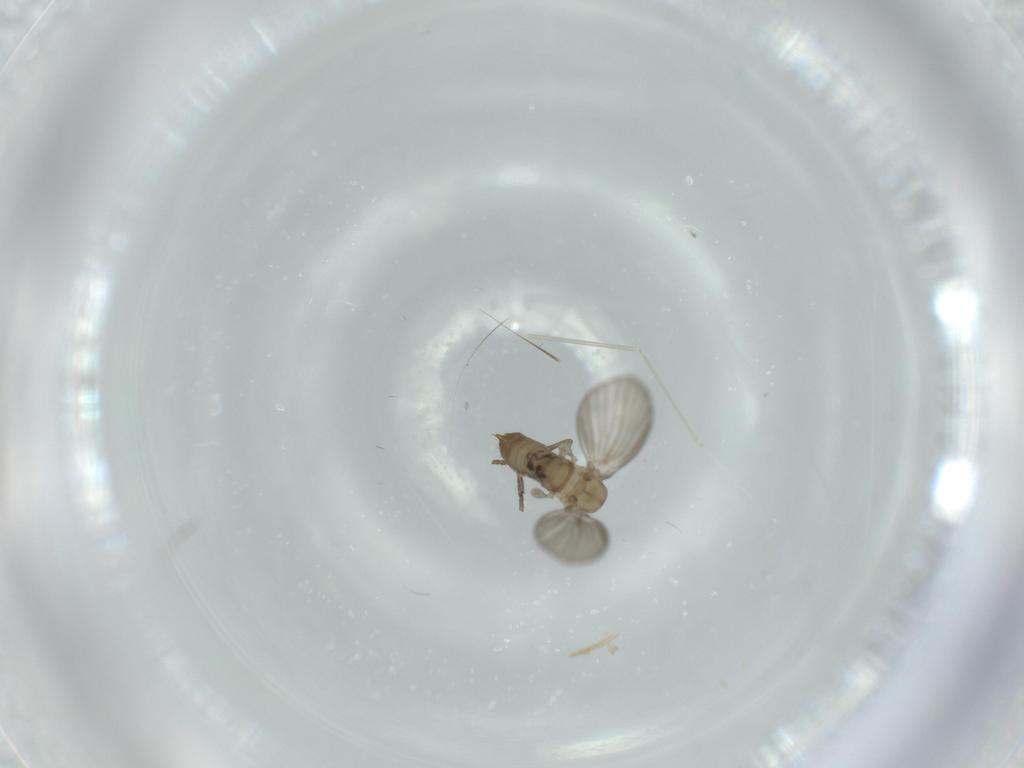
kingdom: Animalia
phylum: Arthropoda
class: Insecta
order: Diptera
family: Psychodidae
